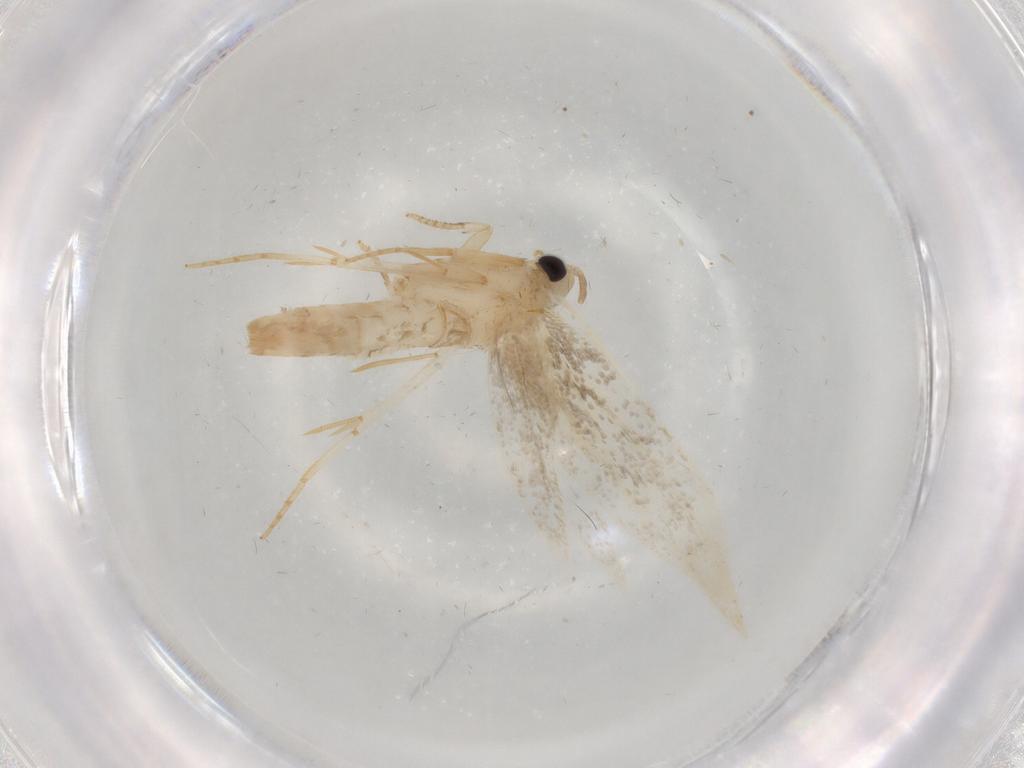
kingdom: Animalia
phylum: Arthropoda
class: Insecta
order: Lepidoptera
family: Tineidae
